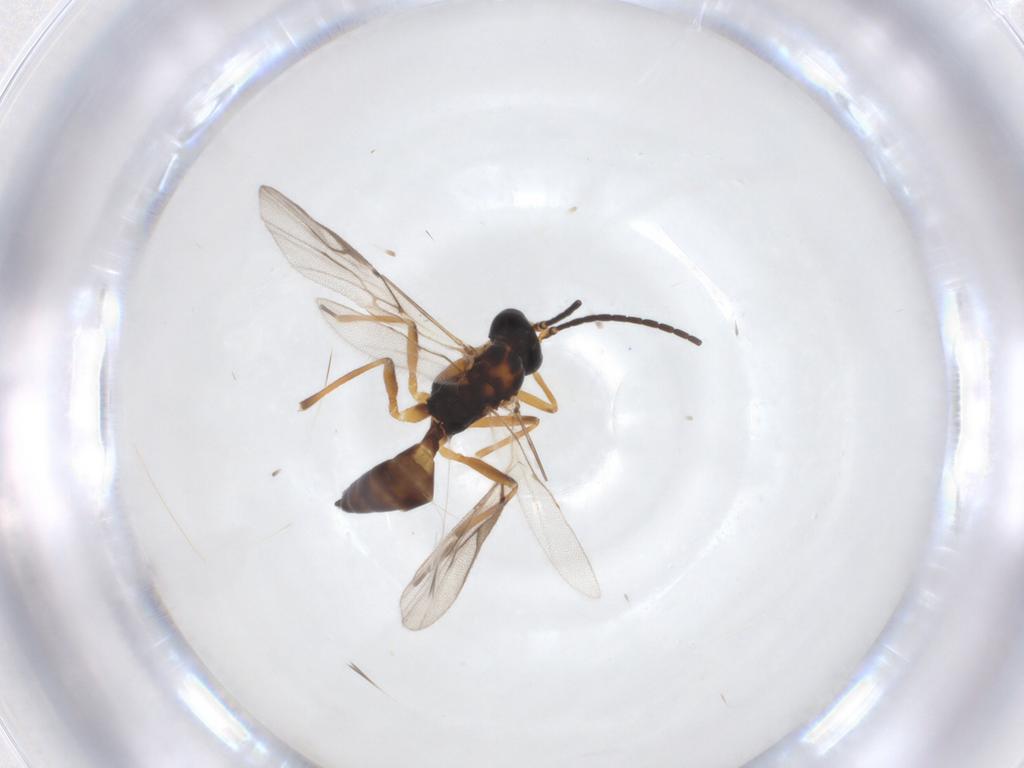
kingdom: Animalia
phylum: Arthropoda
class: Insecta
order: Hymenoptera
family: Braconidae
